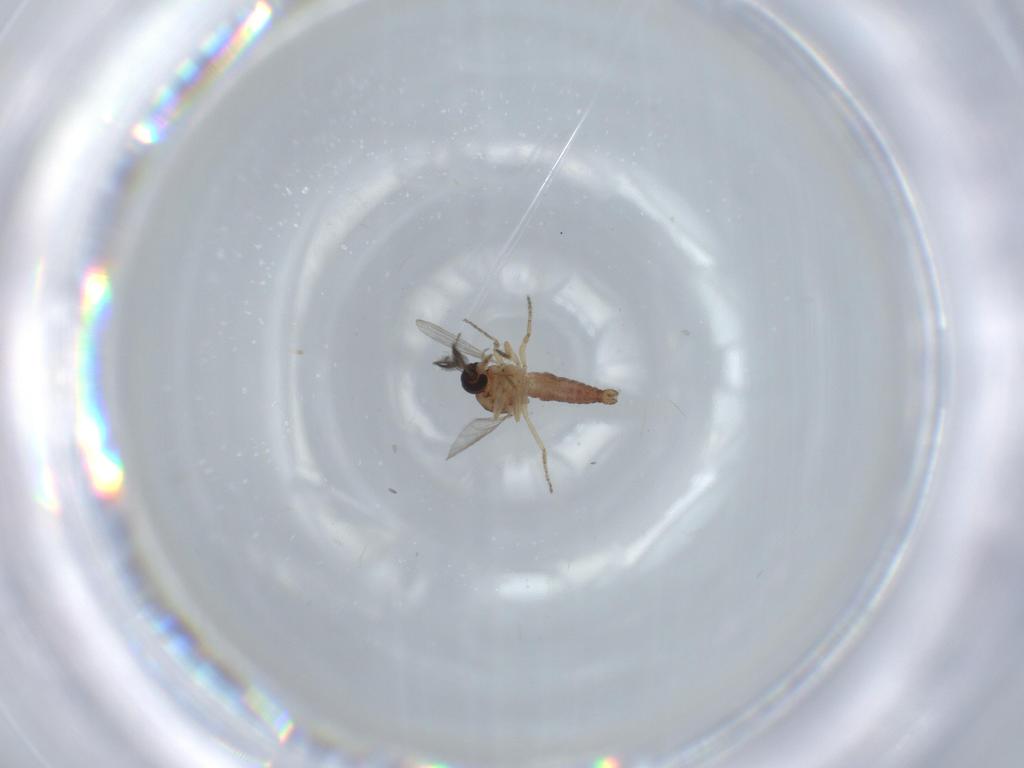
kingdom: Animalia
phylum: Arthropoda
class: Insecta
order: Diptera
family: Ceratopogonidae
